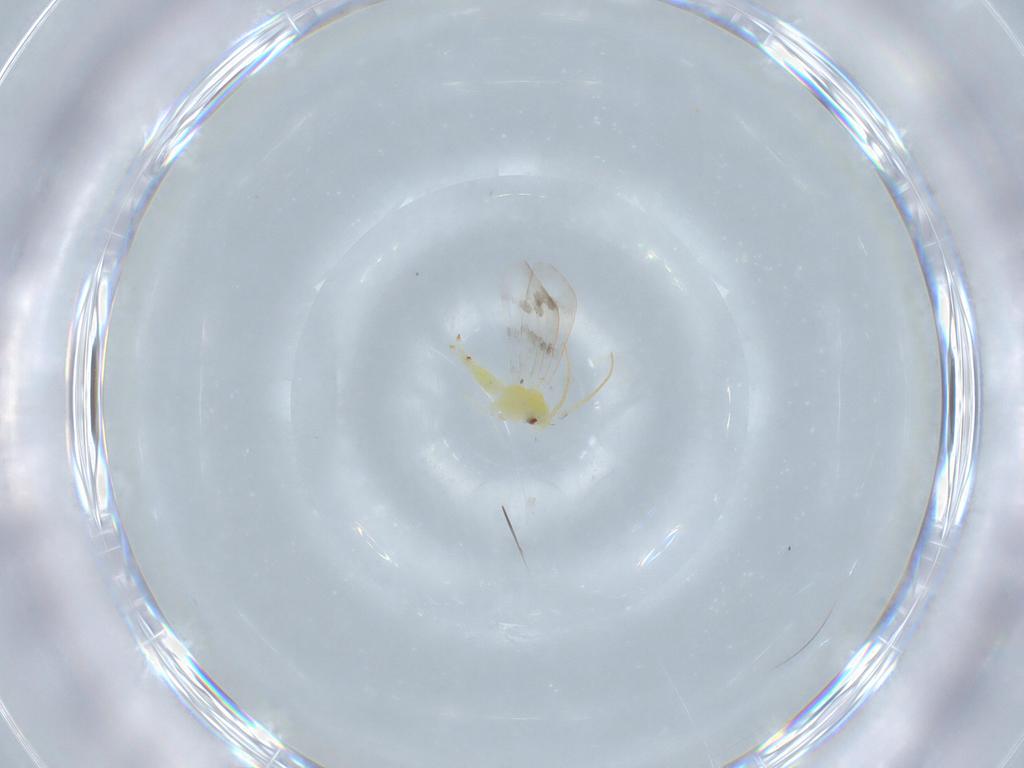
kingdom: Animalia
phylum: Arthropoda
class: Insecta
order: Hemiptera
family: Aleyrodidae
